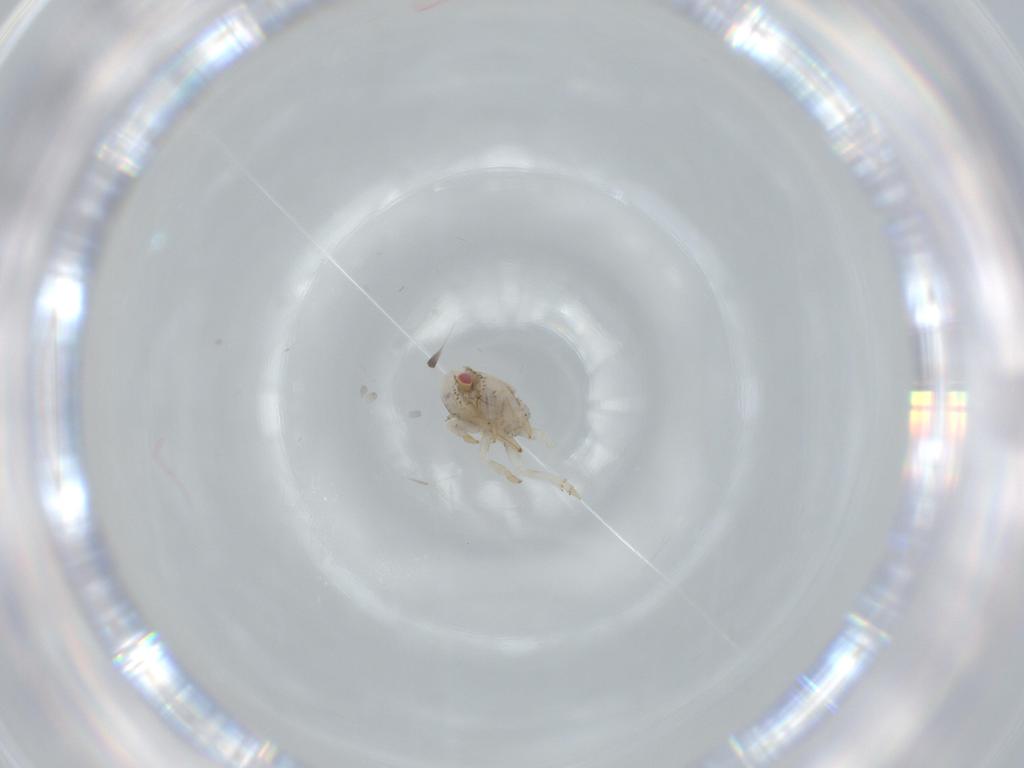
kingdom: Animalia
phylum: Arthropoda
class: Insecta
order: Hemiptera
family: Acanaloniidae
